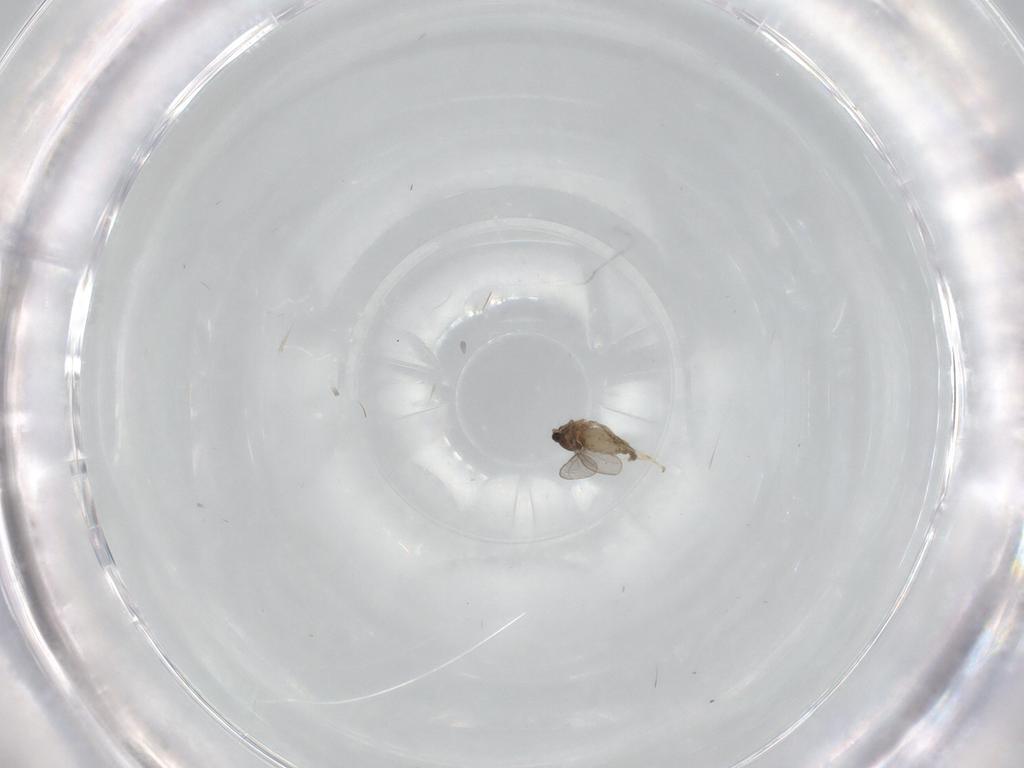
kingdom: Animalia
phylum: Arthropoda
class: Insecta
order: Diptera
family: Cecidomyiidae
